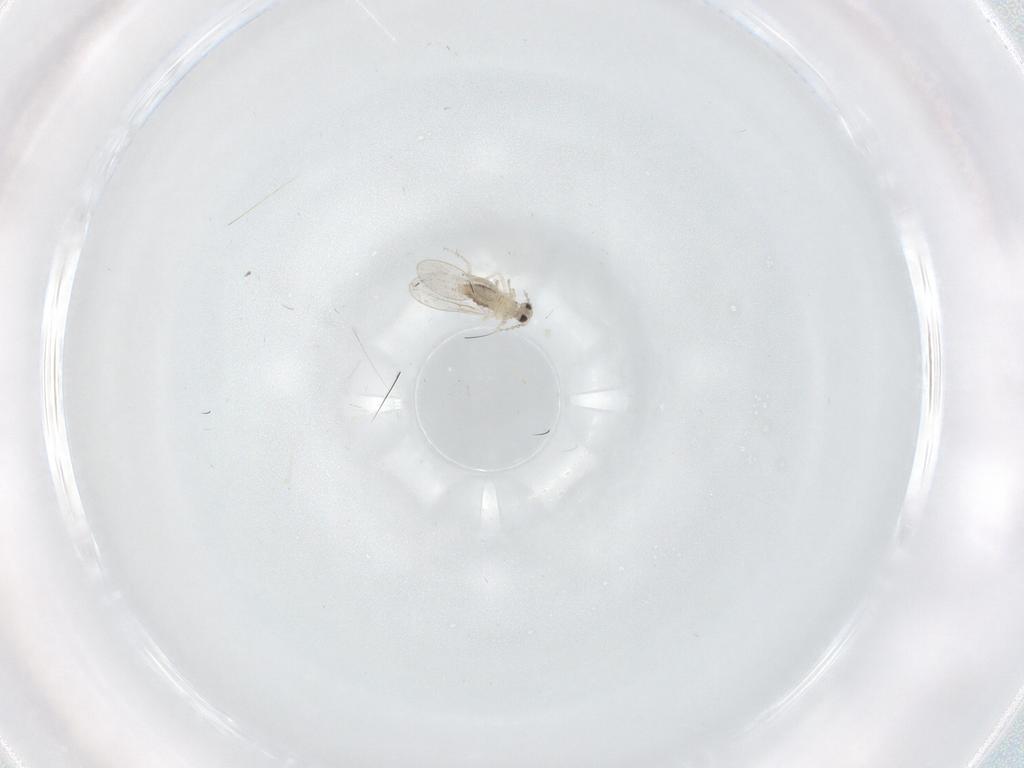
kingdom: Animalia
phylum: Arthropoda
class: Insecta
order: Diptera
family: Cecidomyiidae
